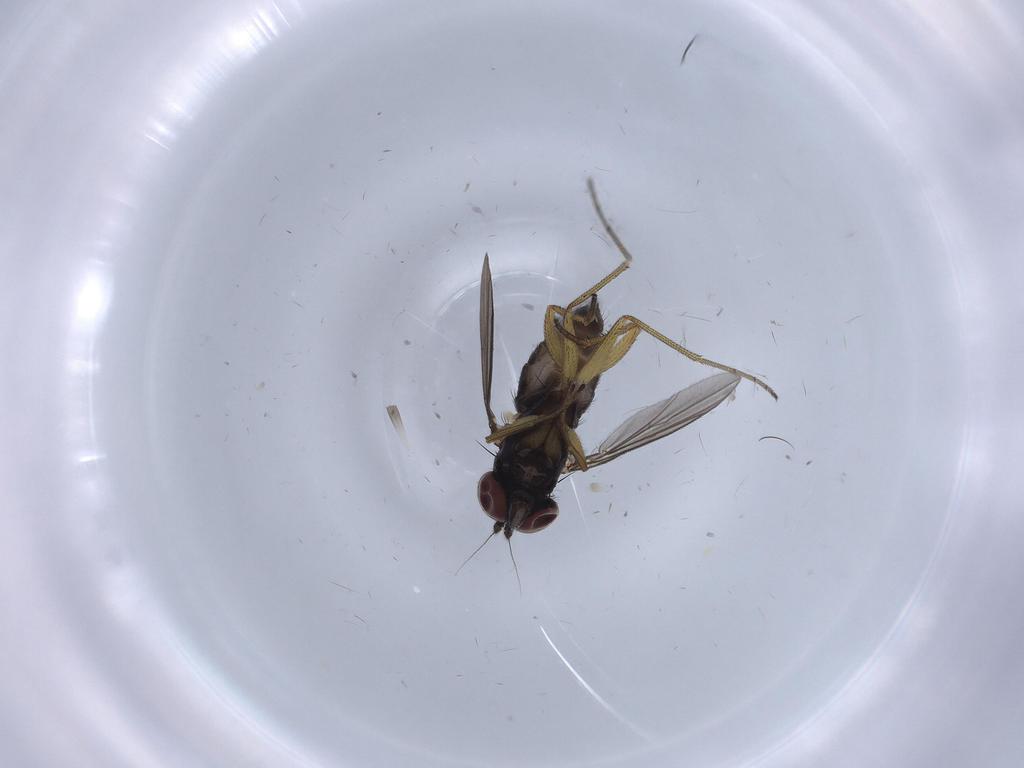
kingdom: Animalia
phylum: Arthropoda
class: Insecta
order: Diptera
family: Dolichopodidae
